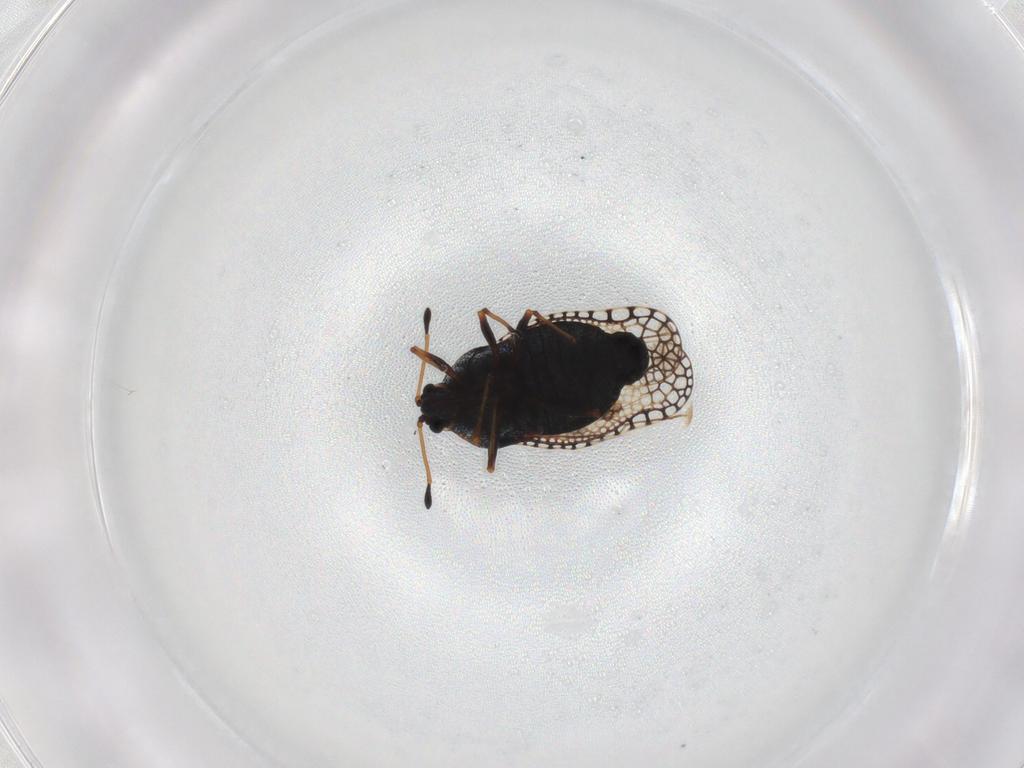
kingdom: Animalia
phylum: Arthropoda
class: Insecta
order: Hemiptera
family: Tingidae
